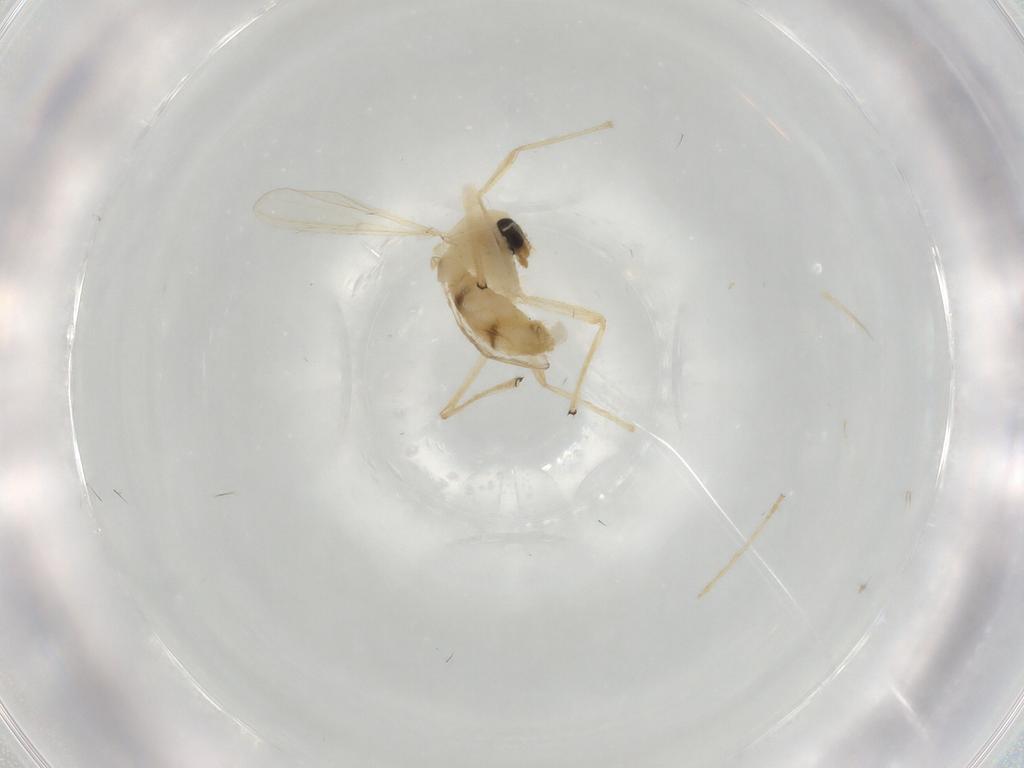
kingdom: Animalia
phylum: Arthropoda
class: Insecta
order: Diptera
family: Chironomidae
